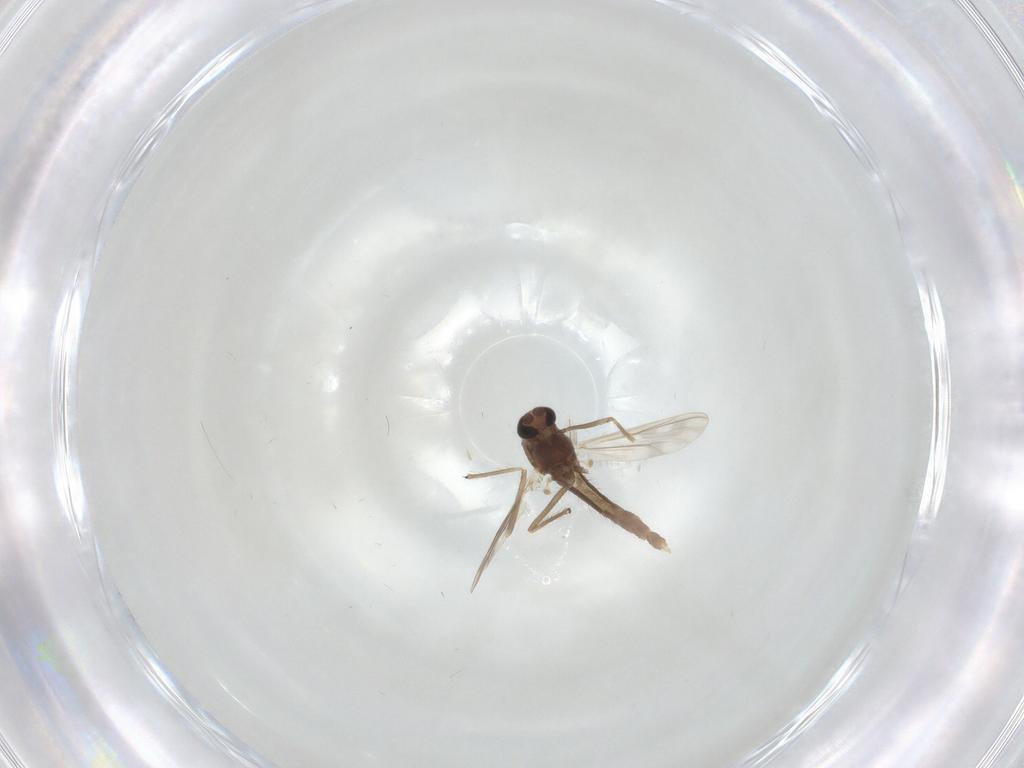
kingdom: Animalia
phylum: Arthropoda
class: Insecta
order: Diptera
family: Chironomidae
